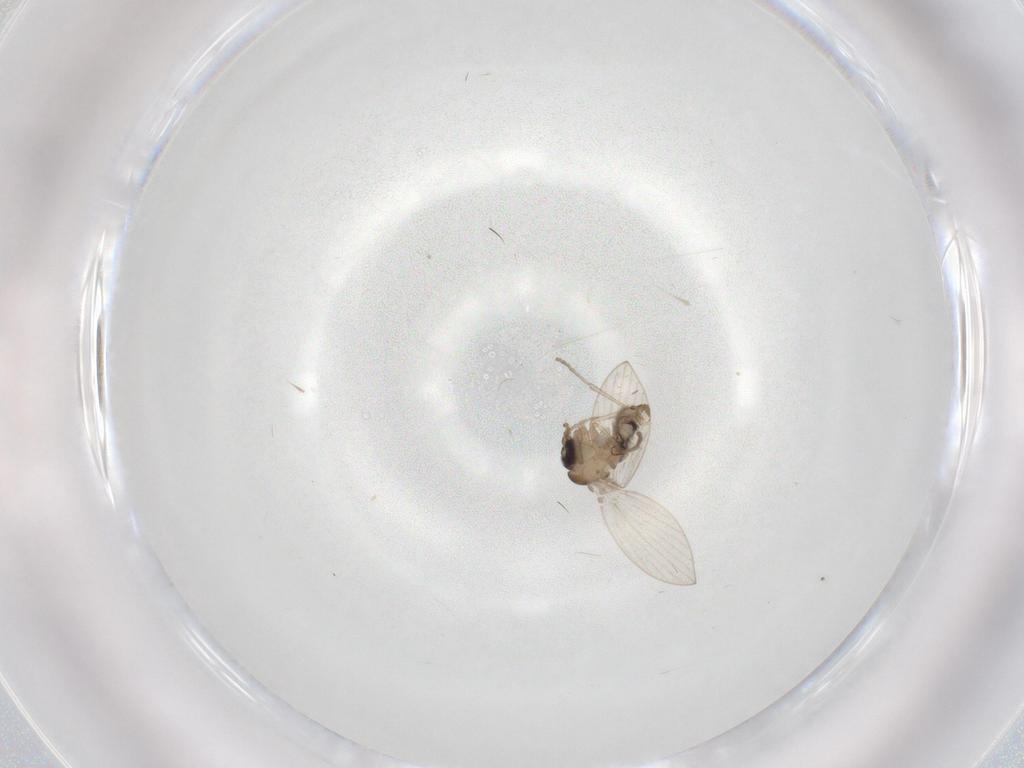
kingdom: Animalia
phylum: Arthropoda
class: Insecta
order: Diptera
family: Psychodidae
